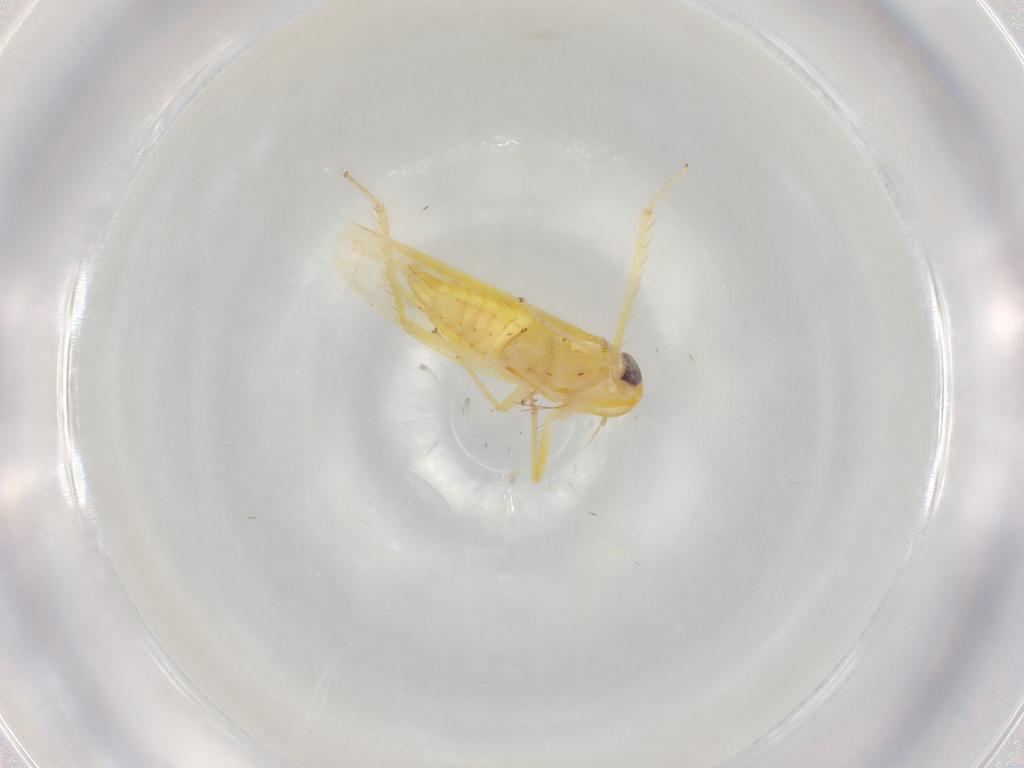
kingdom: Animalia
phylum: Arthropoda
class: Insecta
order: Hemiptera
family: Cicadellidae
